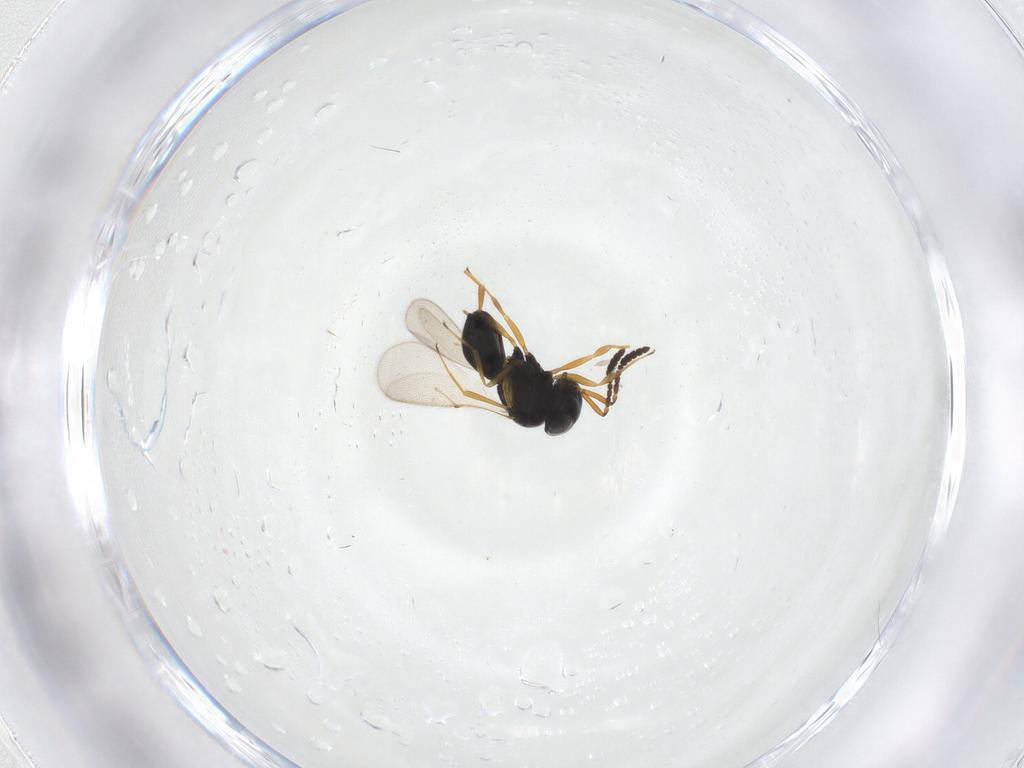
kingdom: Animalia
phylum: Arthropoda
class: Insecta
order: Hymenoptera
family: Scelionidae
